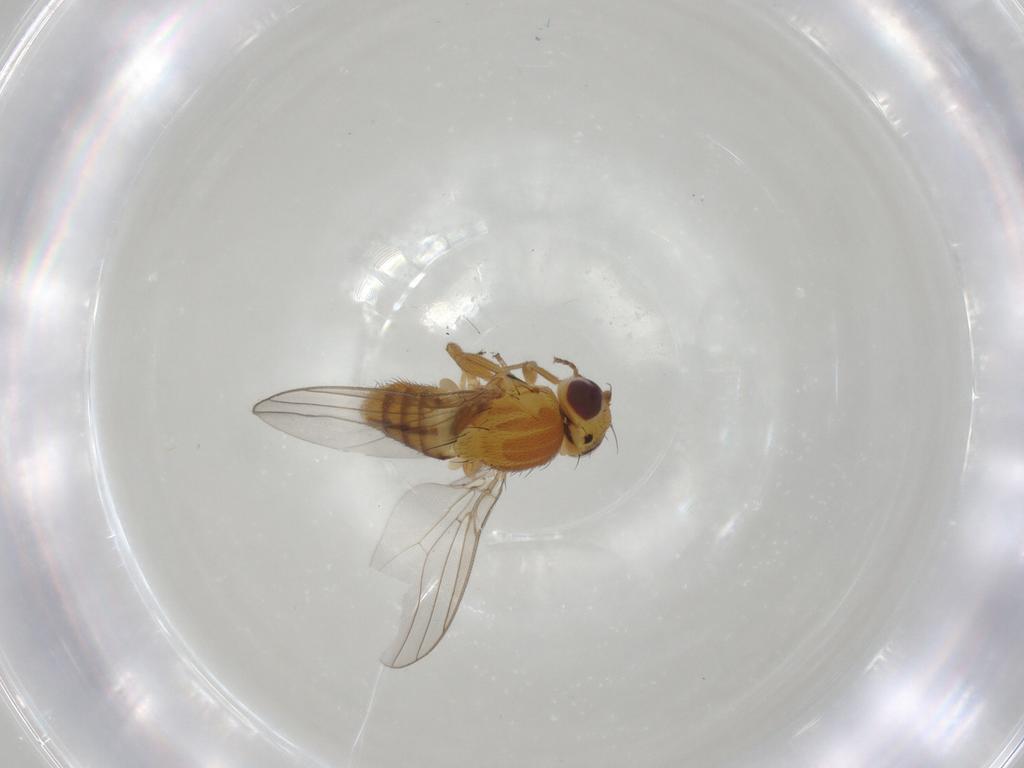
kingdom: Animalia
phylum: Arthropoda
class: Insecta
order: Diptera
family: Chloropidae
